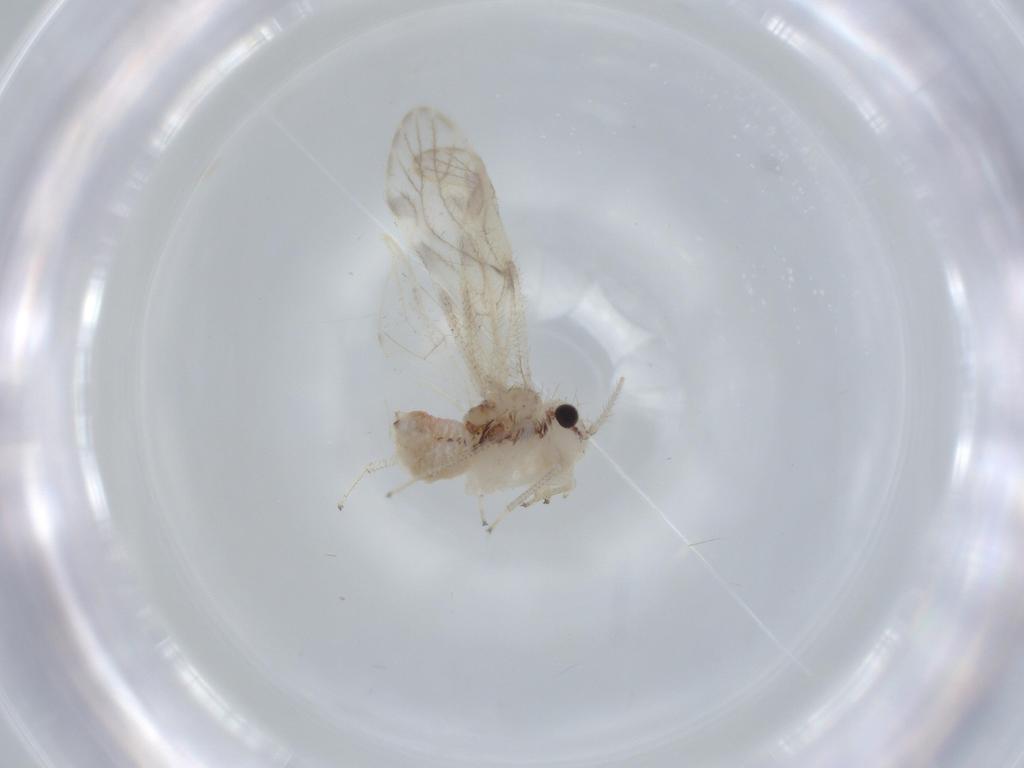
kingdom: Animalia
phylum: Arthropoda
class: Insecta
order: Psocodea
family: Pseudocaeciliidae
